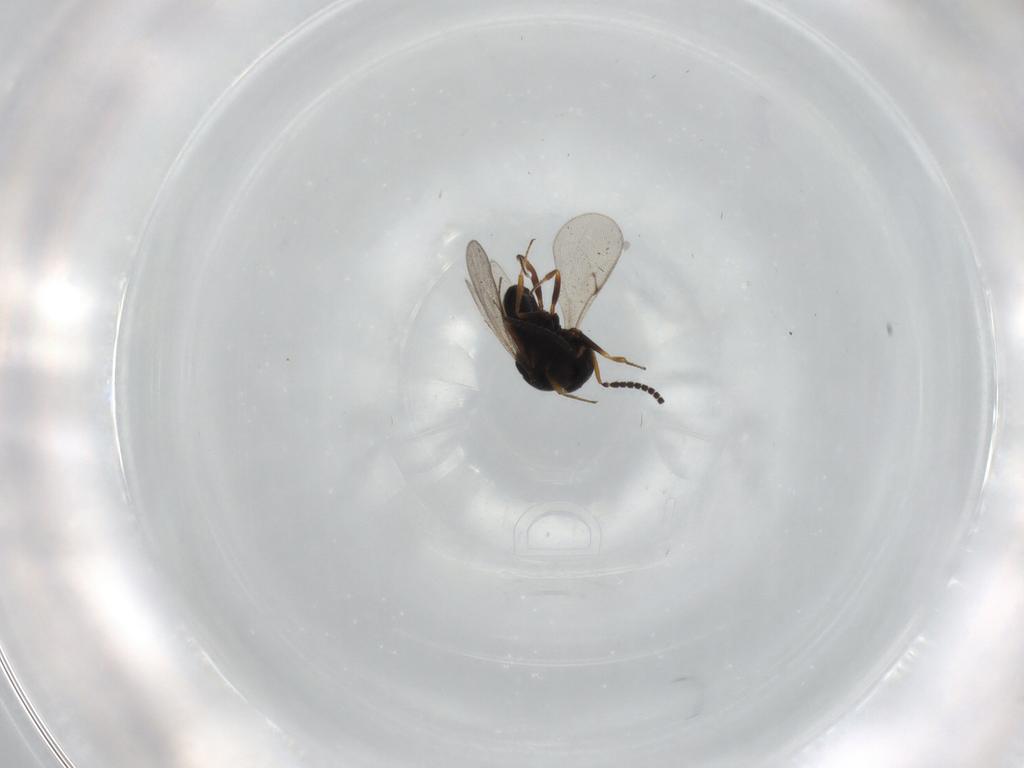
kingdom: Animalia
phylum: Arthropoda
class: Insecta
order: Hymenoptera
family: Scelionidae
